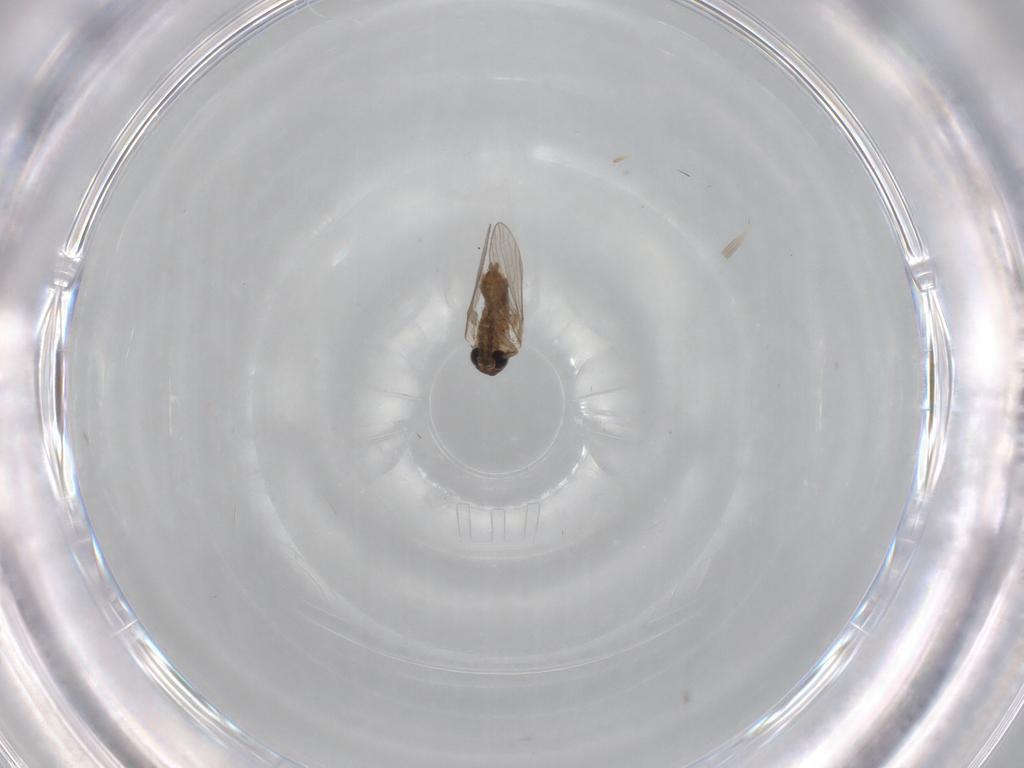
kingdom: Animalia
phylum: Arthropoda
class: Insecta
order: Diptera
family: Cecidomyiidae
